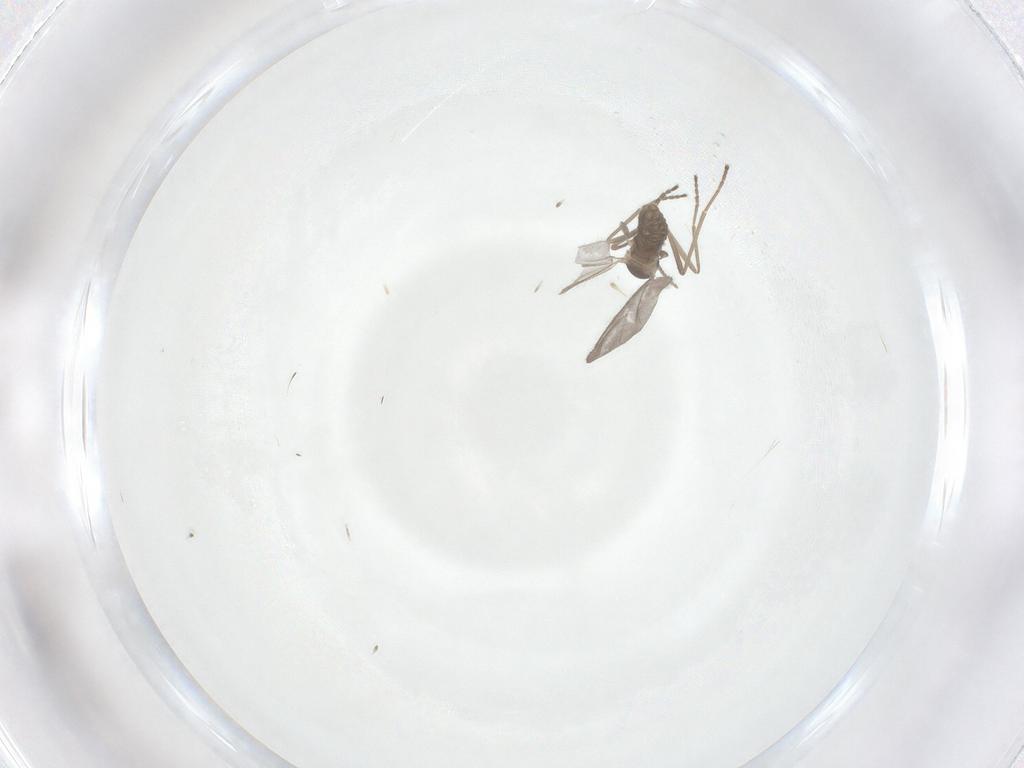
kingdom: Animalia
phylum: Arthropoda
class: Insecta
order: Diptera
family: Cecidomyiidae
